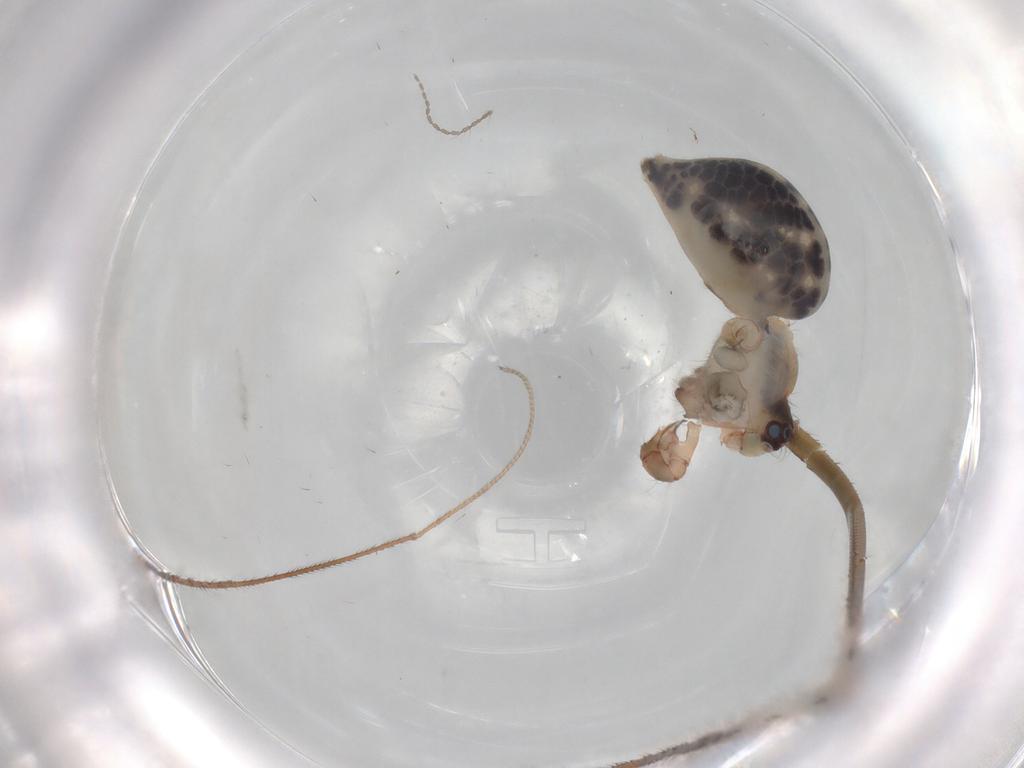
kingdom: Animalia
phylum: Arthropoda
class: Arachnida
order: Araneae
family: Pholcidae
